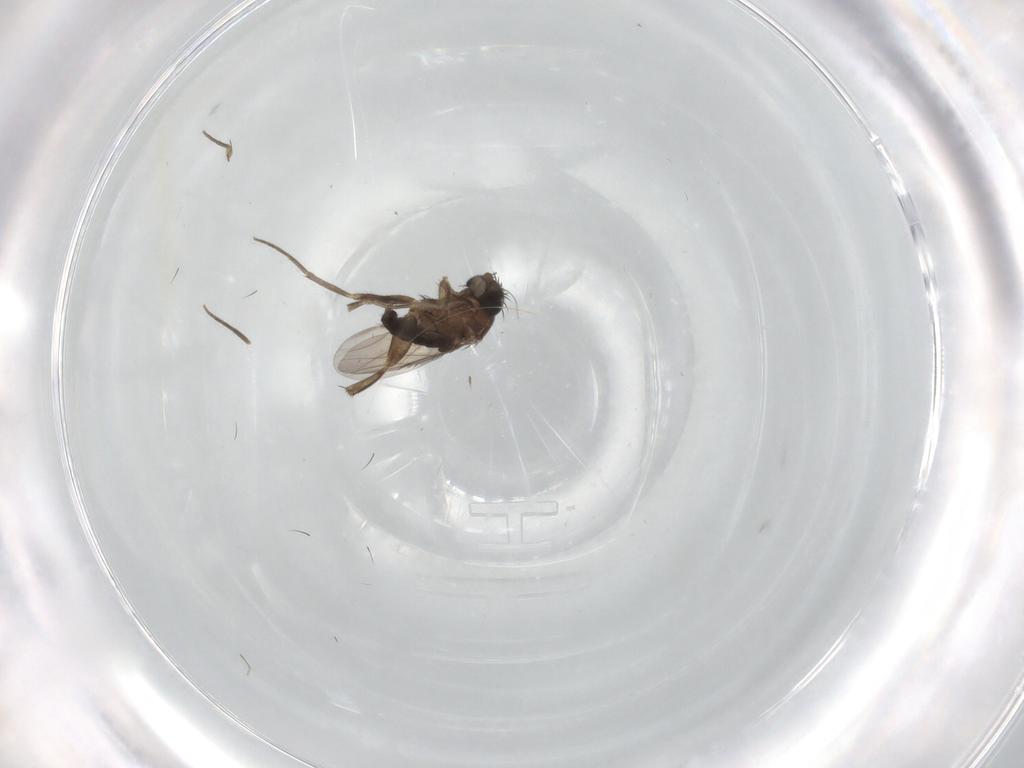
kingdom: Animalia
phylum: Arthropoda
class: Insecta
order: Diptera
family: Phoridae
